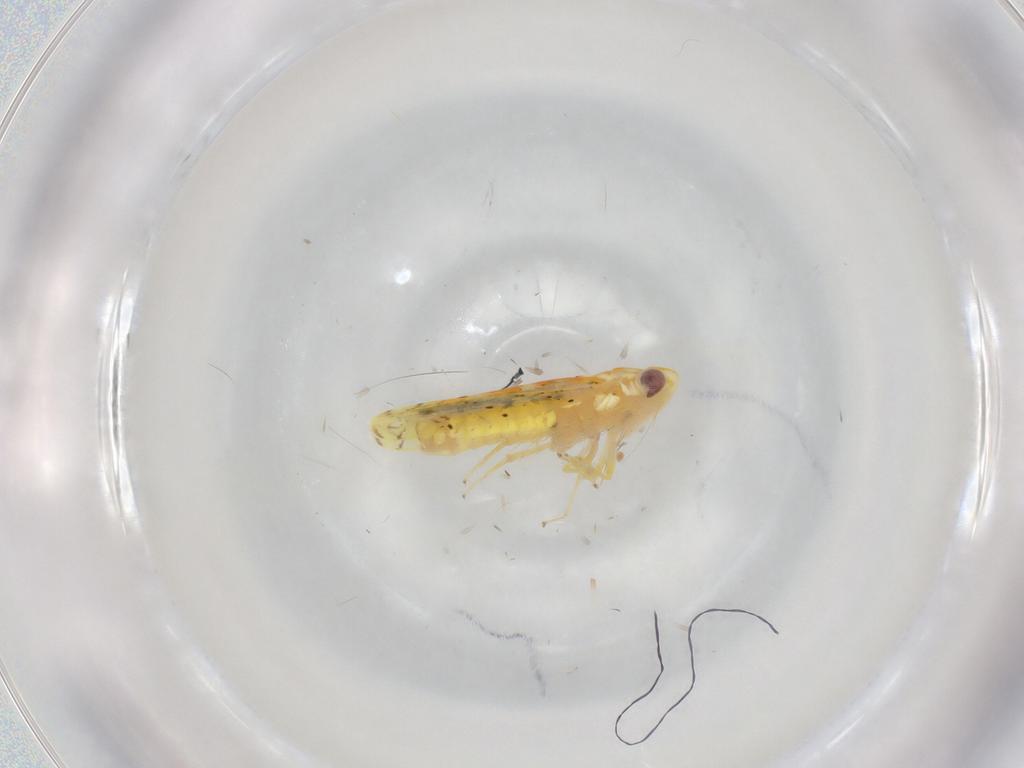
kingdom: Animalia
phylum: Arthropoda
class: Insecta
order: Hemiptera
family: Cicadellidae
